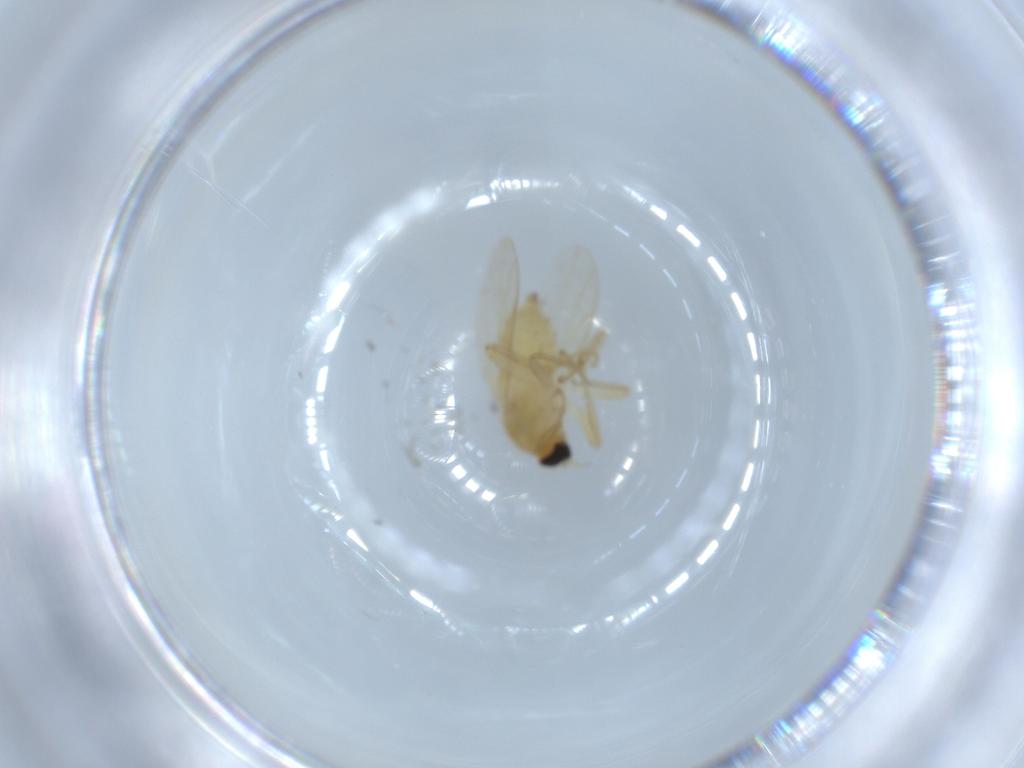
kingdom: Animalia
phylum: Arthropoda
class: Insecta
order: Diptera
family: Hybotidae
